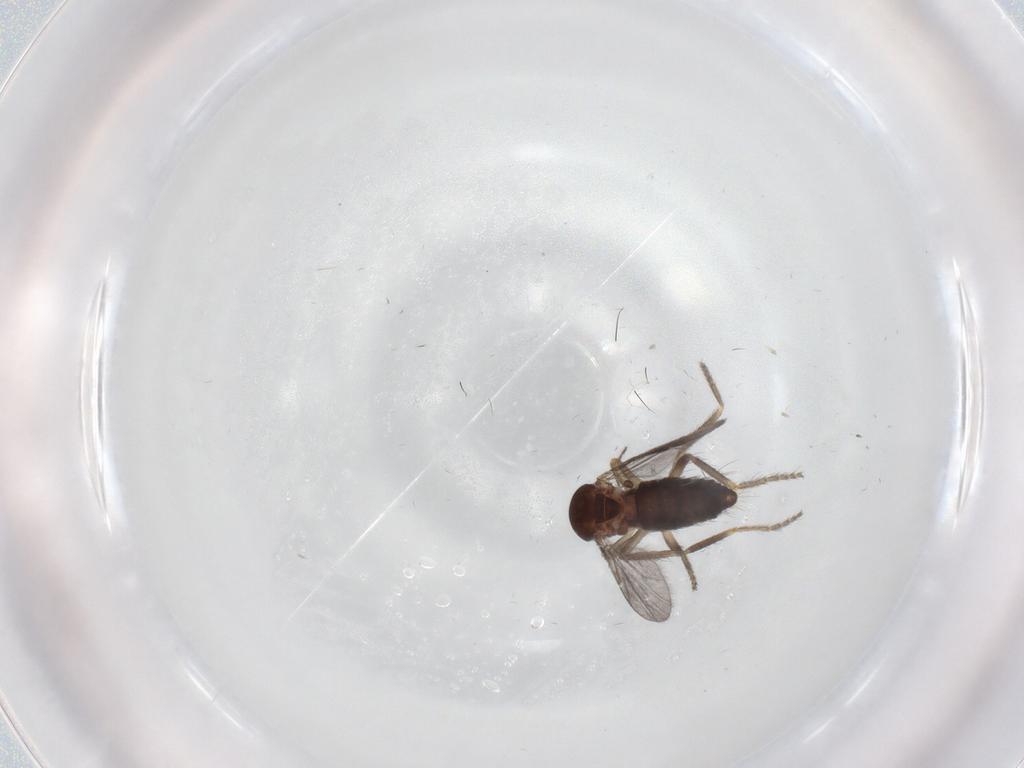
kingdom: Animalia
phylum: Arthropoda
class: Insecta
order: Diptera
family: Ceratopogonidae
